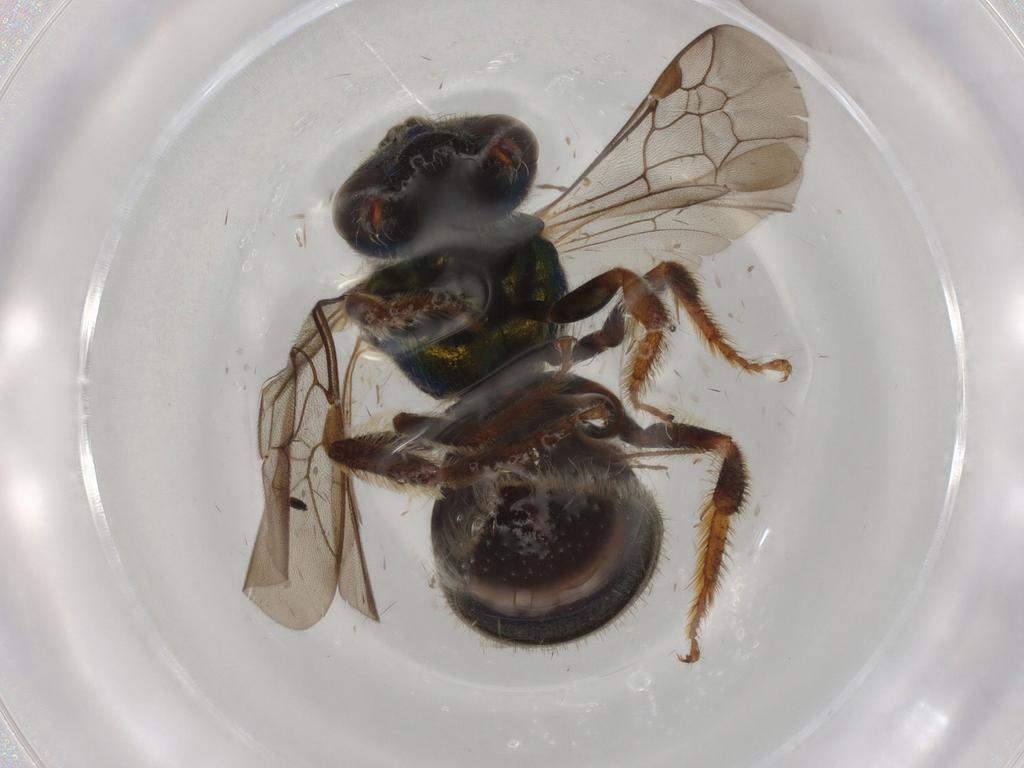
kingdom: Animalia
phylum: Arthropoda
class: Insecta
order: Hymenoptera
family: Halictidae
